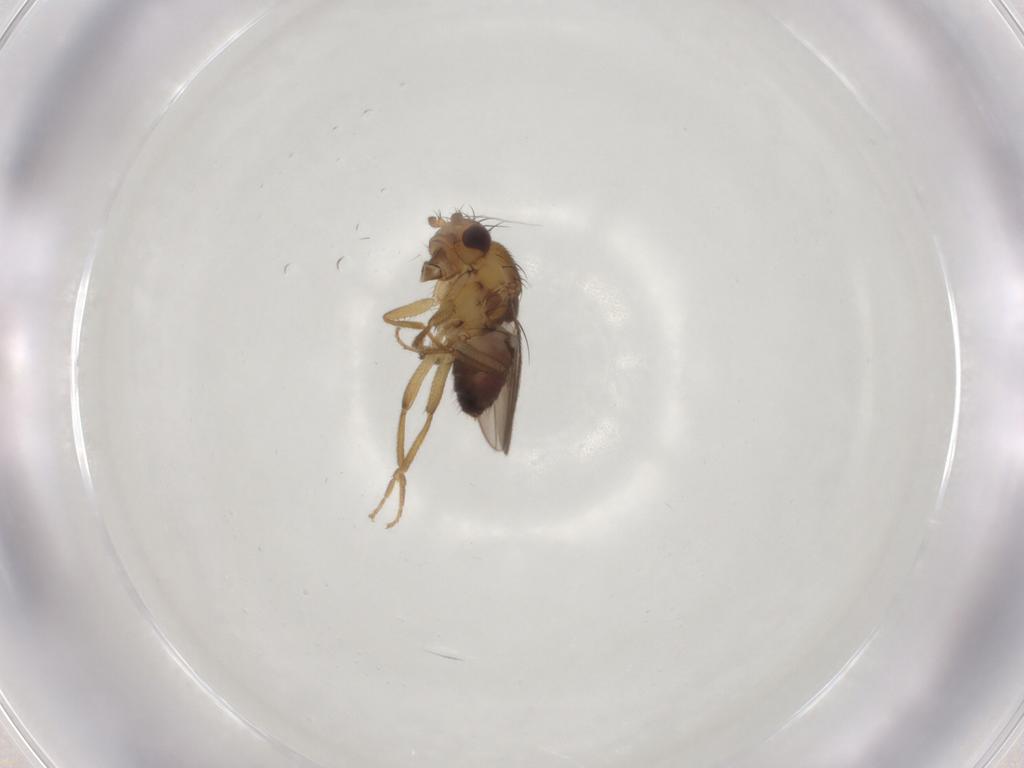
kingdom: Animalia
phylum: Arthropoda
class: Insecta
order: Diptera
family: Sphaeroceridae
